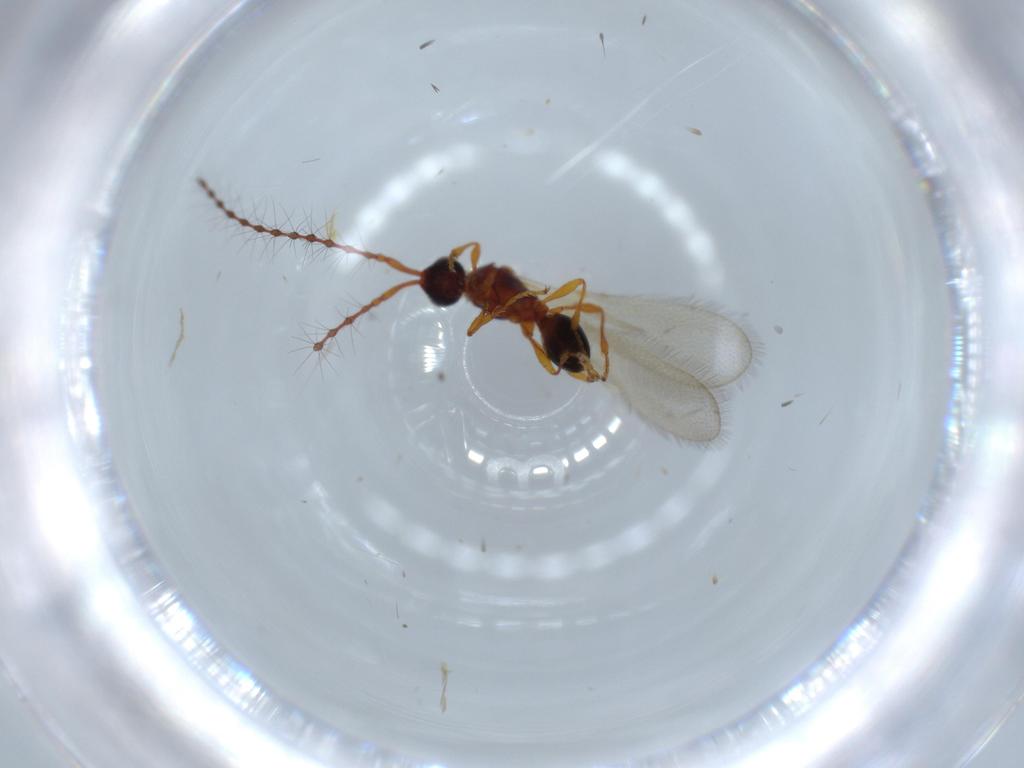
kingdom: Animalia
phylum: Arthropoda
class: Insecta
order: Hymenoptera
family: Diapriidae
